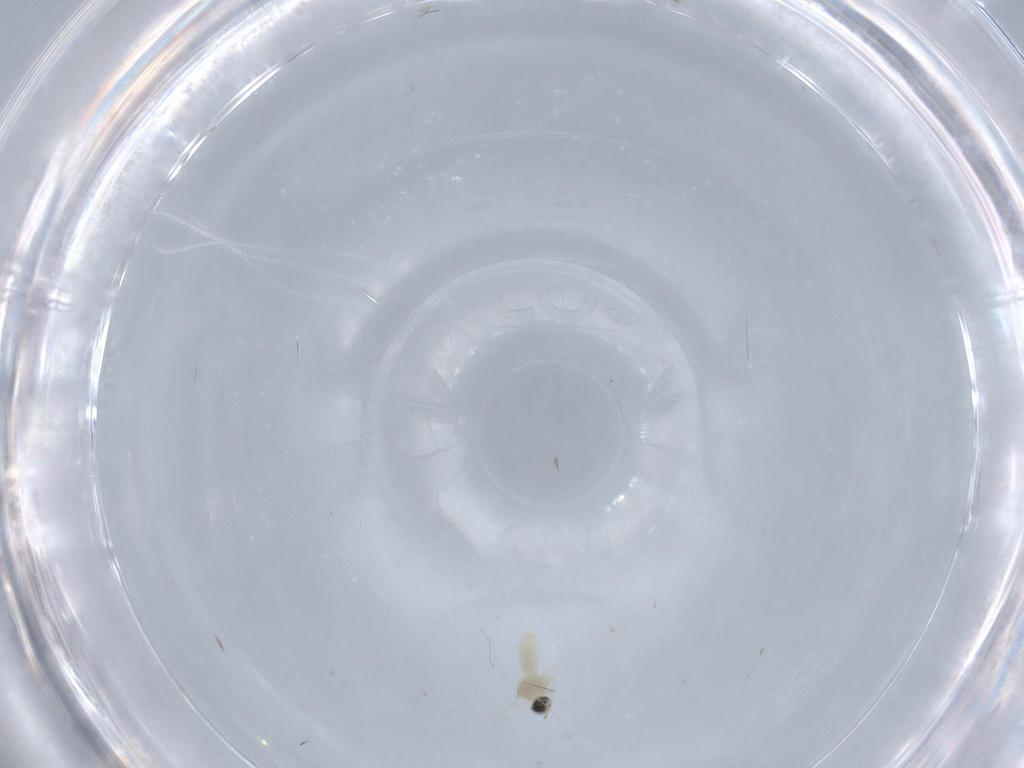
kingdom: Animalia
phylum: Arthropoda
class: Insecta
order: Diptera
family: Cecidomyiidae
